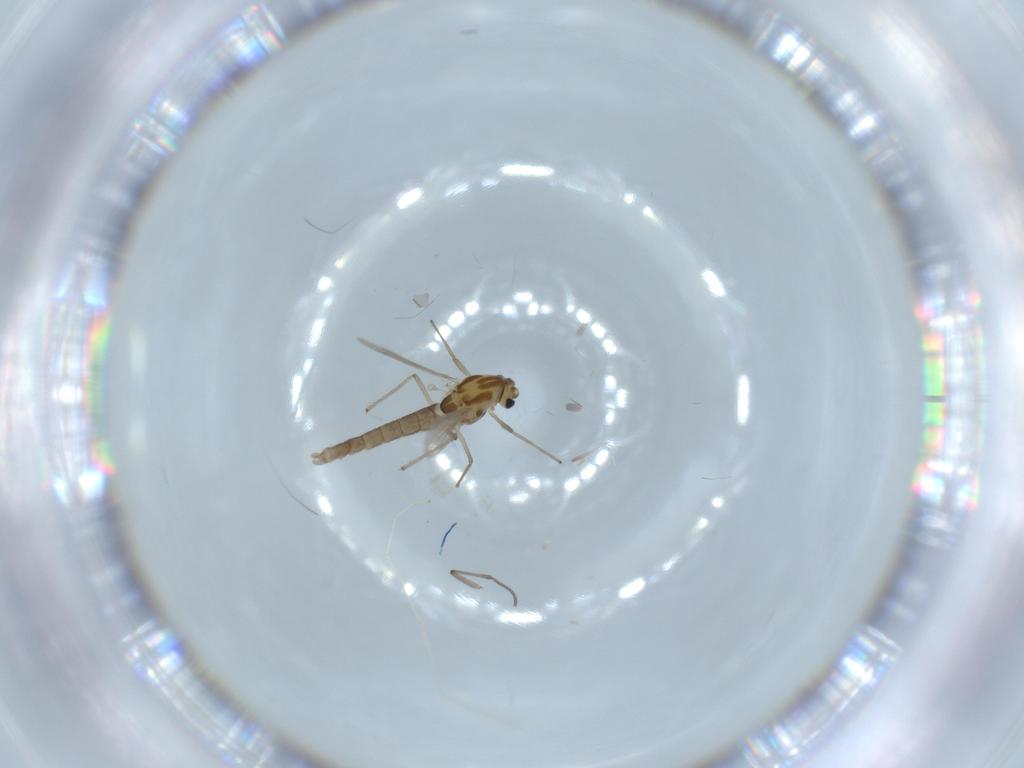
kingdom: Animalia
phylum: Arthropoda
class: Insecta
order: Diptera
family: Chironomidae
